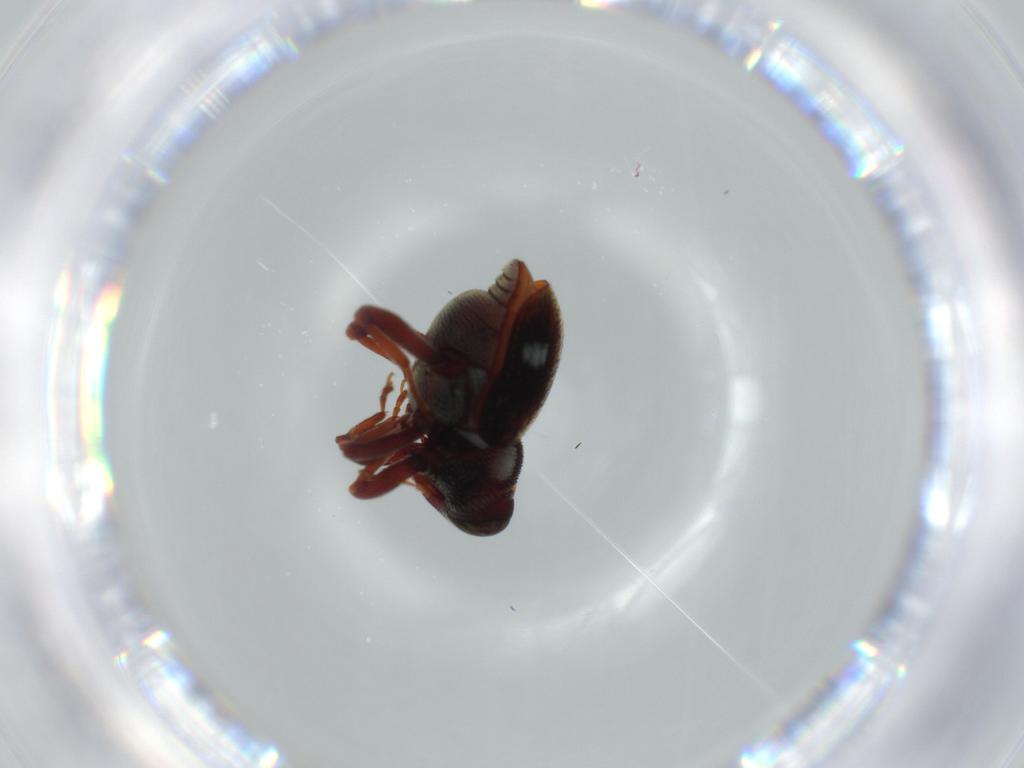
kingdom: Animalia
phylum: Arthropoda
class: Insecta
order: Coleoptera
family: Latridiidae
